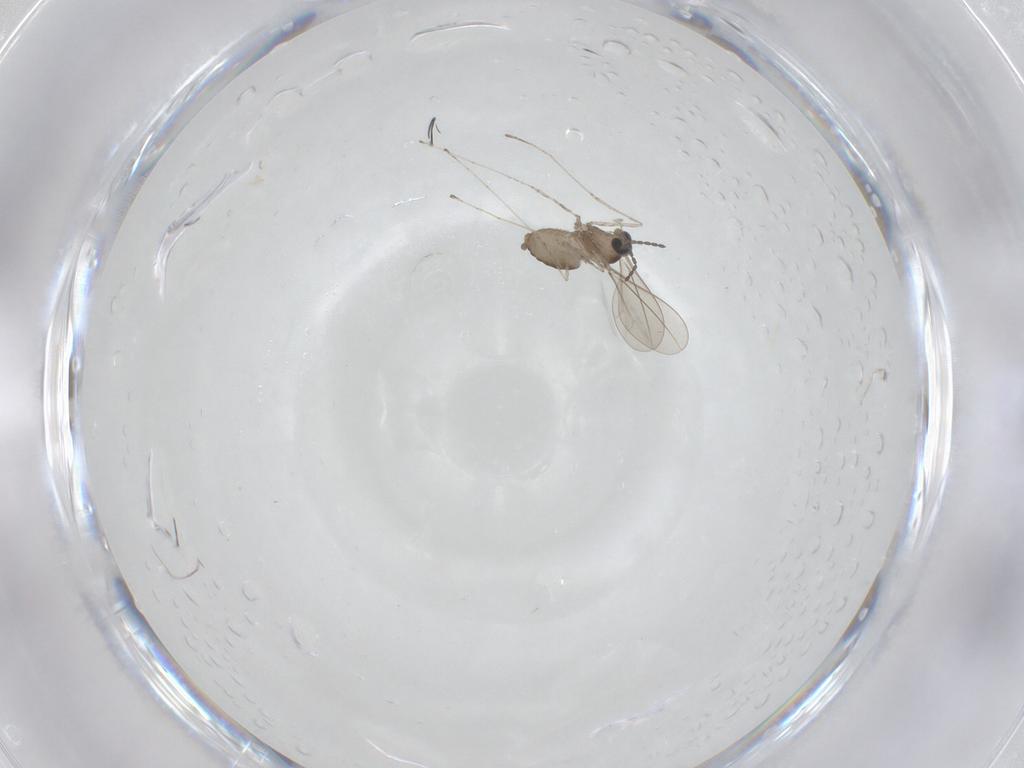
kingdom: Animalia
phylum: Arthropoda
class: Insecta
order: Diptera
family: Cecidomyiidae
